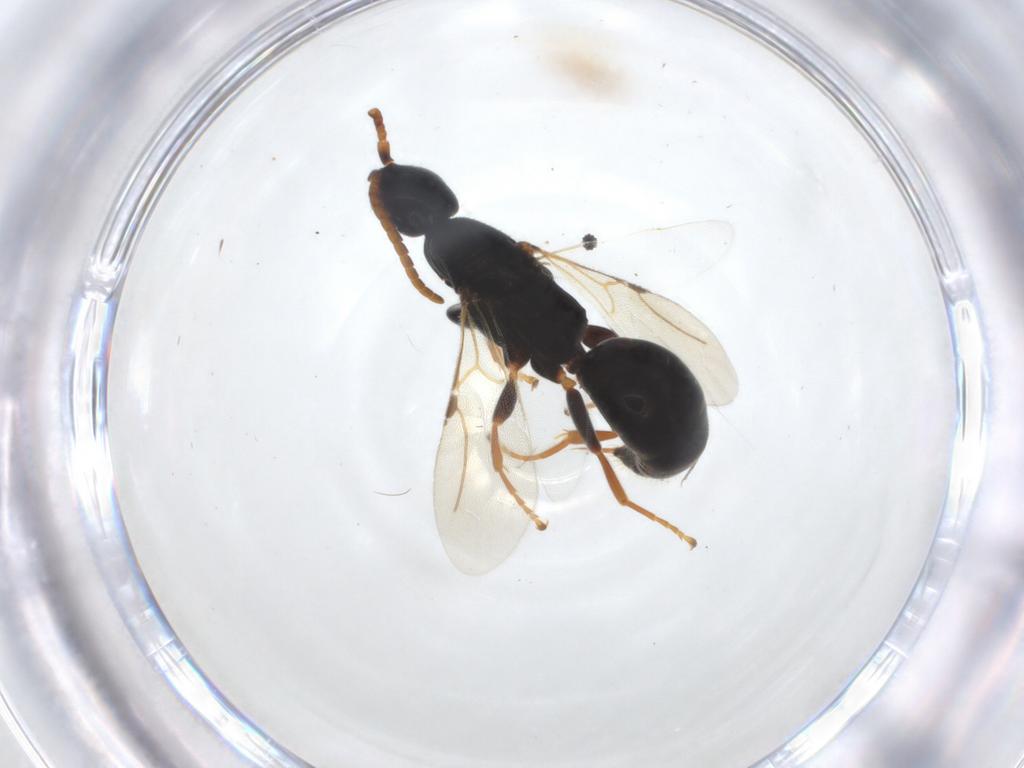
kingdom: Animalia
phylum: Arthropoda
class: Insecta
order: Hymenoptera
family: Bethylidae
